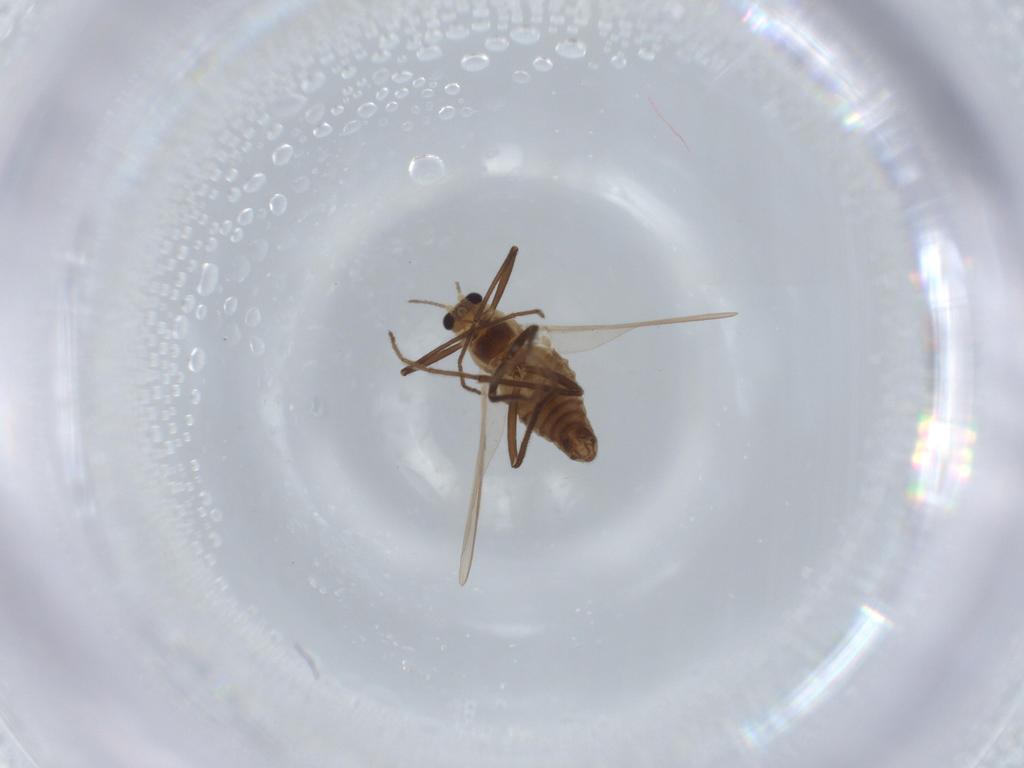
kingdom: Animalia
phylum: Arthropoda
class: Insecta
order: Diptera
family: Chironomidae
